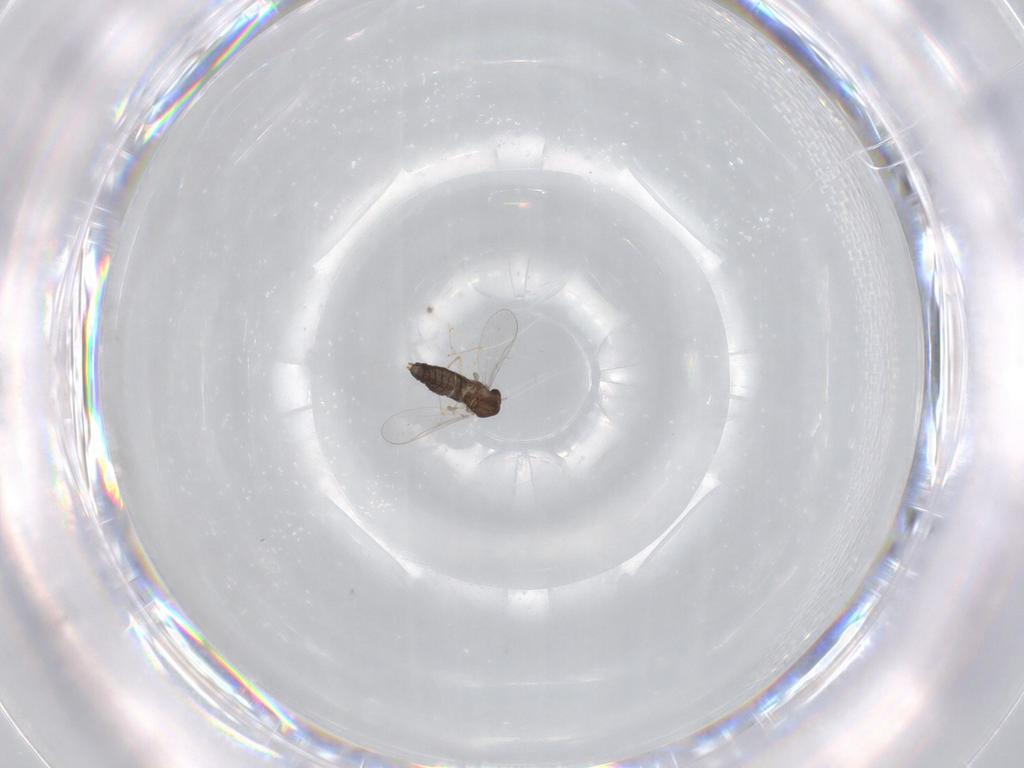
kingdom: Animalia
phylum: Arthropoda
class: Insecta
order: Diptera
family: Chironomidae
